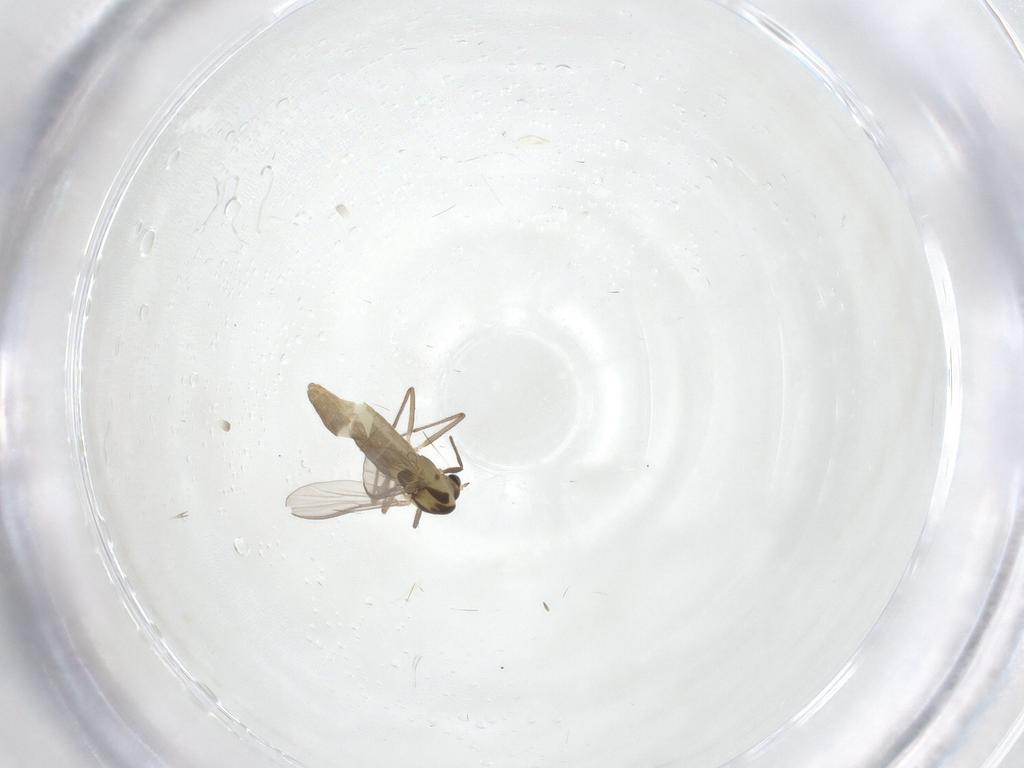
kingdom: Animalia
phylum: Arthropoda
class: Insecta
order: Diptera
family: Chironomidae
